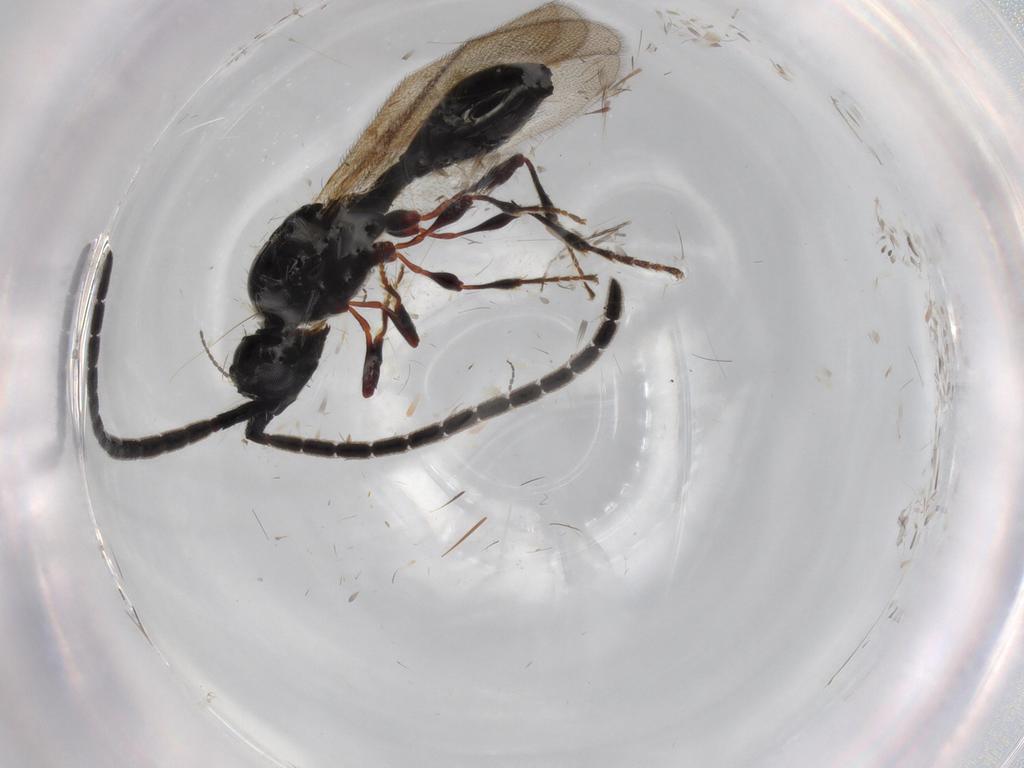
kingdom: Animalia
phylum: Arthropoda
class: Insecta
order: Hymenoptera
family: Diapriidae
